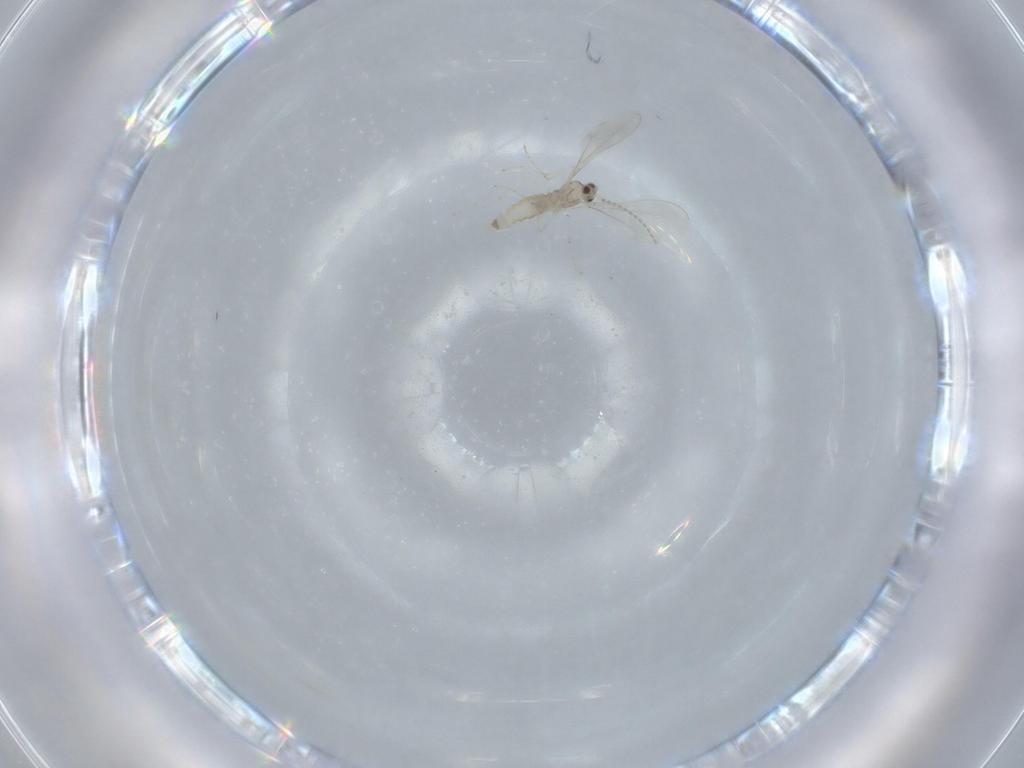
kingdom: Animalia
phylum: Arthropoda
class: Insecta
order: Diptera
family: Cecidomyiidae
